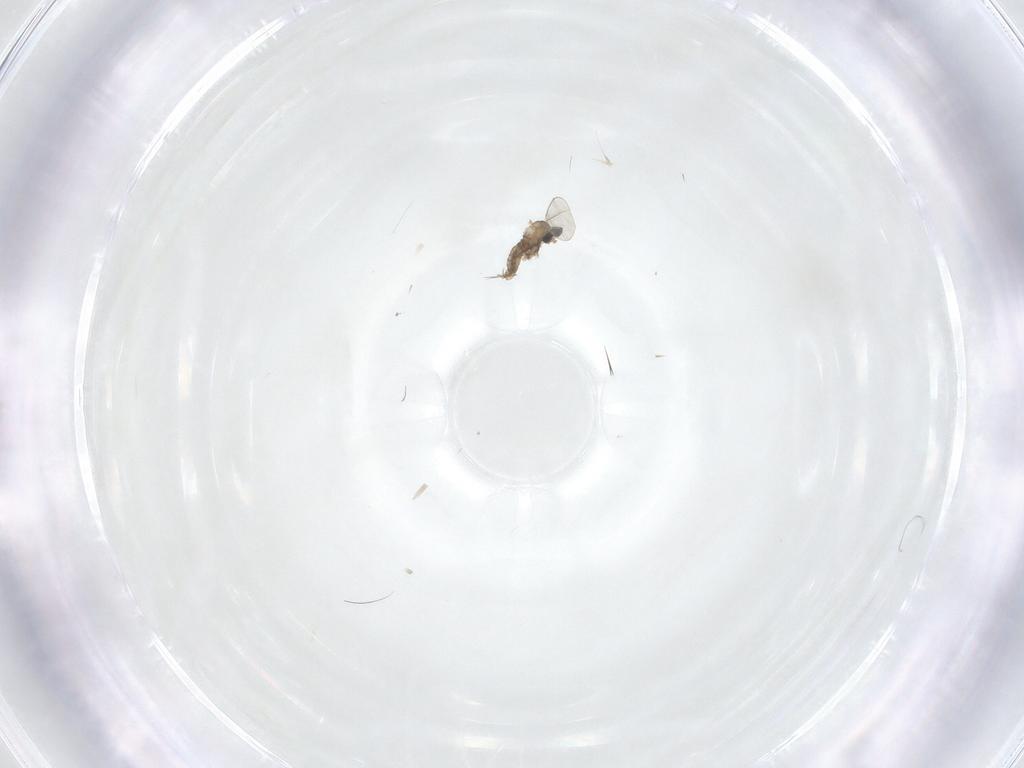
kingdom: Animalia
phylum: Arthropoda
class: Insecta
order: Diptera
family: Cecidomyiidae
